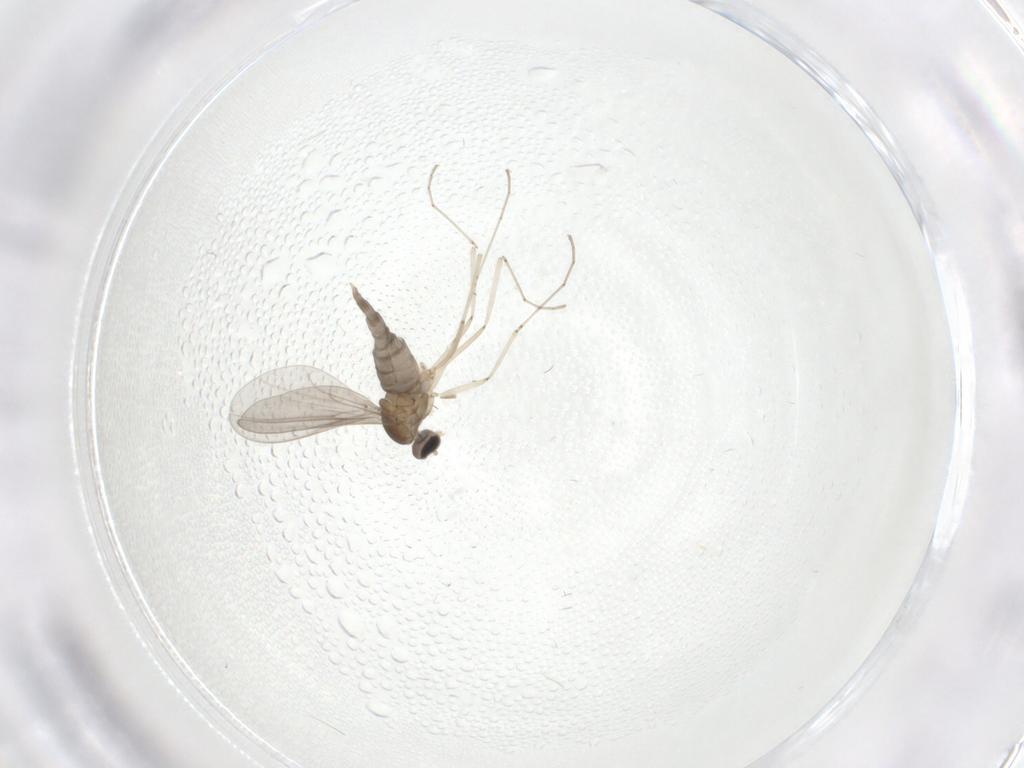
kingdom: Animalia
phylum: Arthropoda
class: Insecta
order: Diptera
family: Cecidomyiidae
